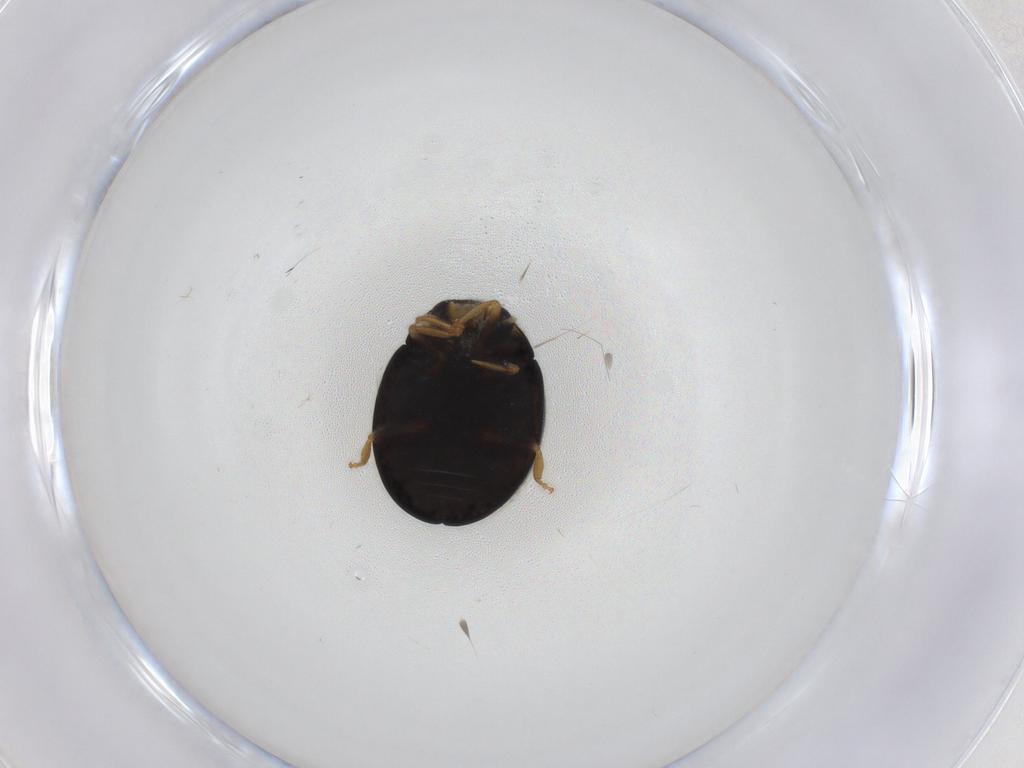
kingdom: Animalia
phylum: Arthropoda
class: Insecta
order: Coleoptera
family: Coccinellidae
